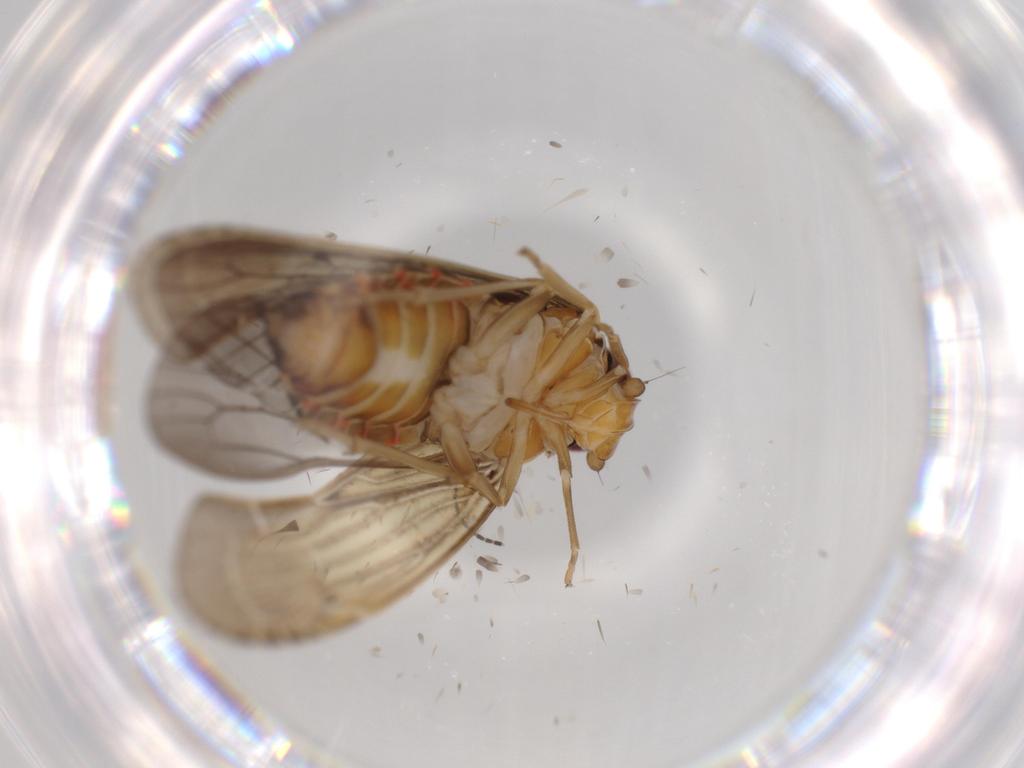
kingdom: Animalia
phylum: Arthropoda
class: Insecta
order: Hemiptera
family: Achilidae
